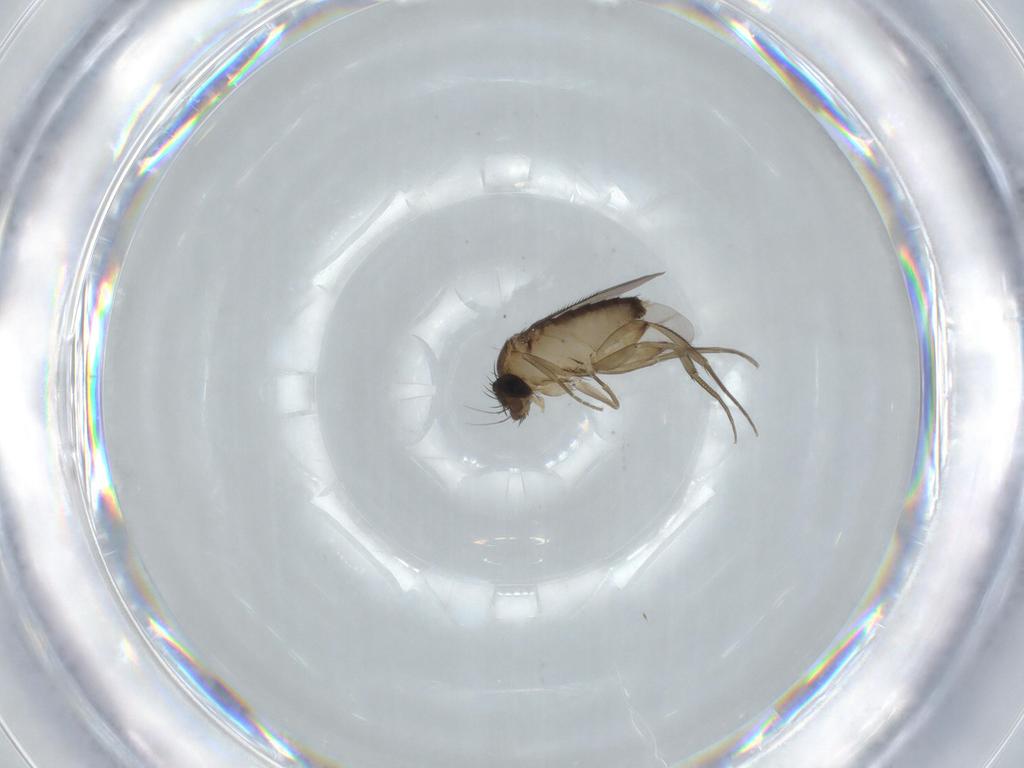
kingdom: Animalia
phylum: Arthropoda
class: Insecta
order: Diptera
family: Phoridae
